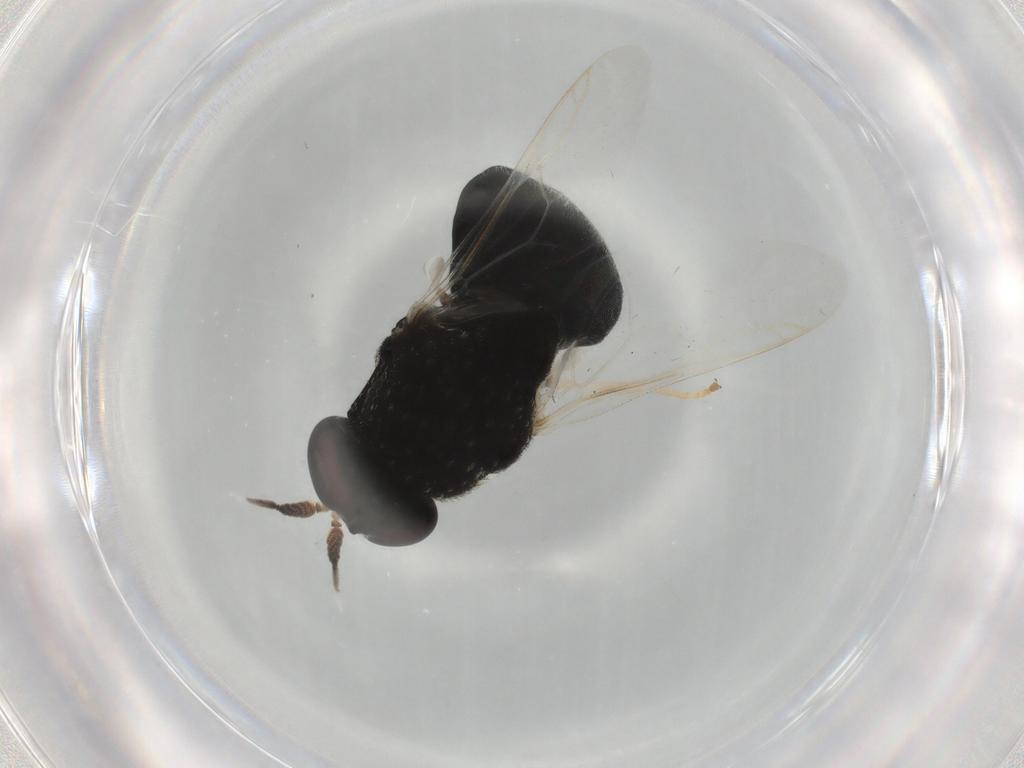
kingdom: Animalia
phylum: Arthropoda
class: Insecta
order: Diptera
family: Stratiomyidae
